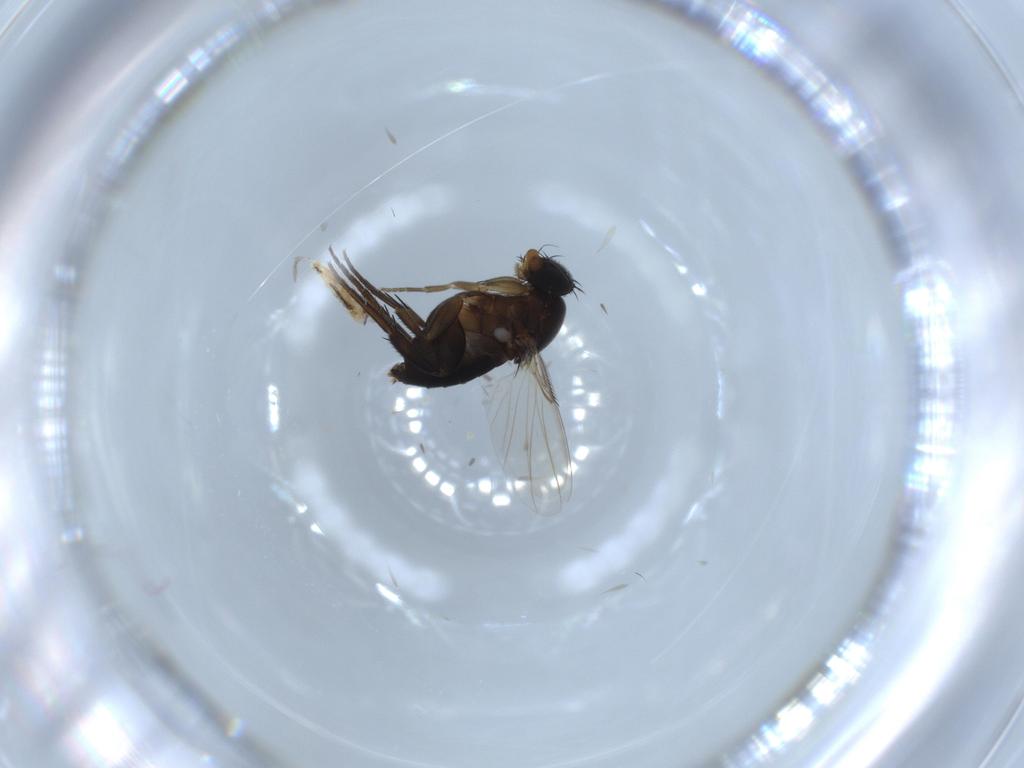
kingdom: Animalia
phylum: Arthropoda
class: Insecta
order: Diptera
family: Phoridae
